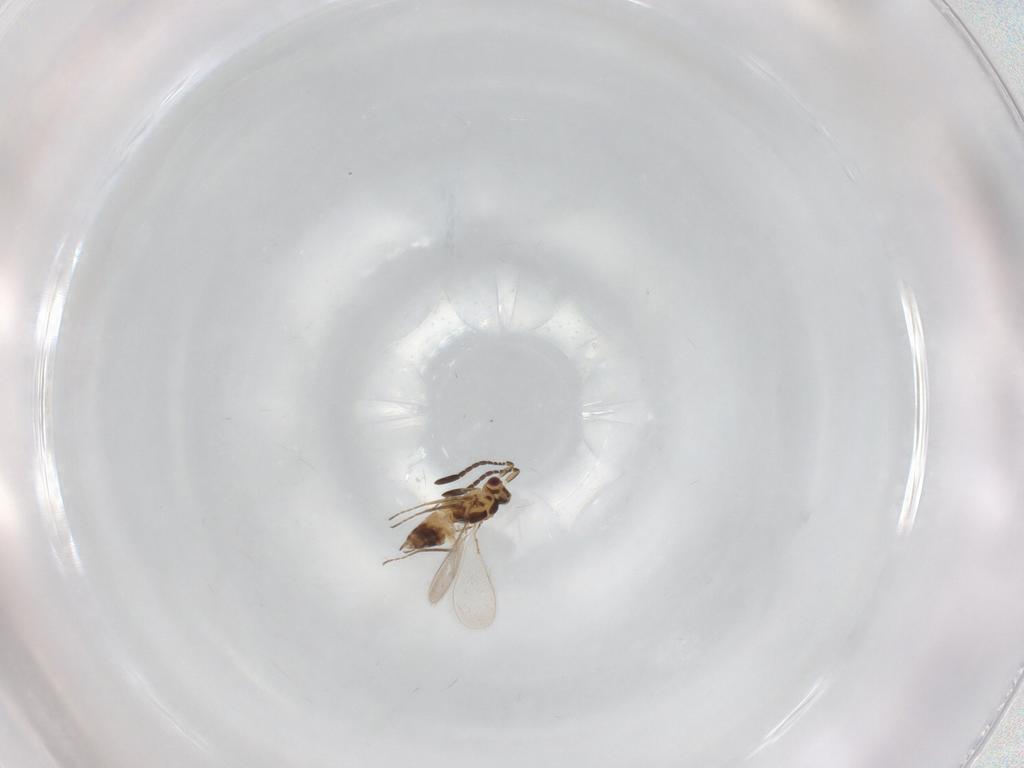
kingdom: Animalia
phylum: Arthropoda
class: Insecta
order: Hymenoptera
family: Mymaridae
